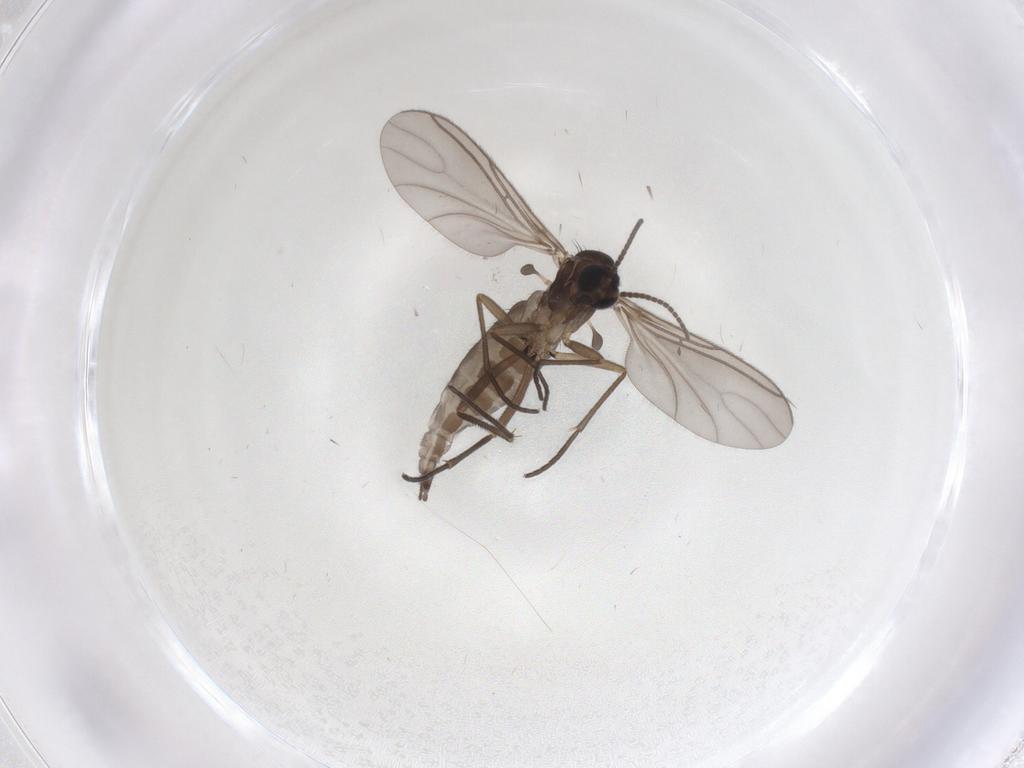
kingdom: Animalia
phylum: Arthropoda
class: Insecta
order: Diptera
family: Sciaridae
